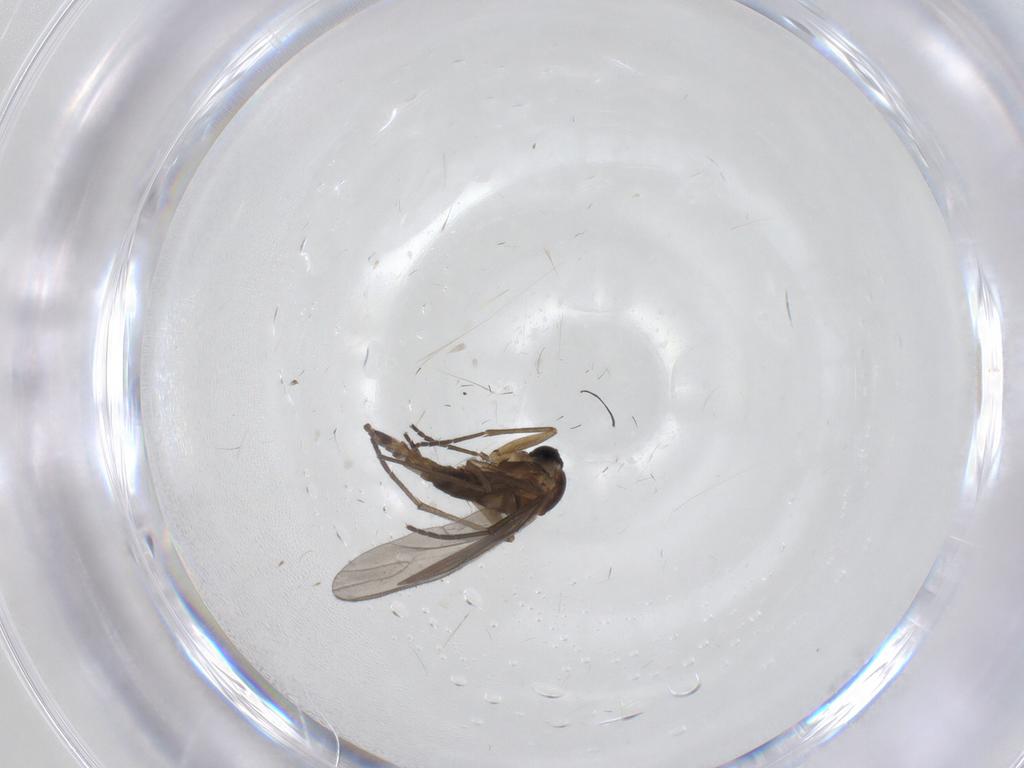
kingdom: Animalia
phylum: Arthropoda
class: Insecta
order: Diptera
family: Sciaridae
